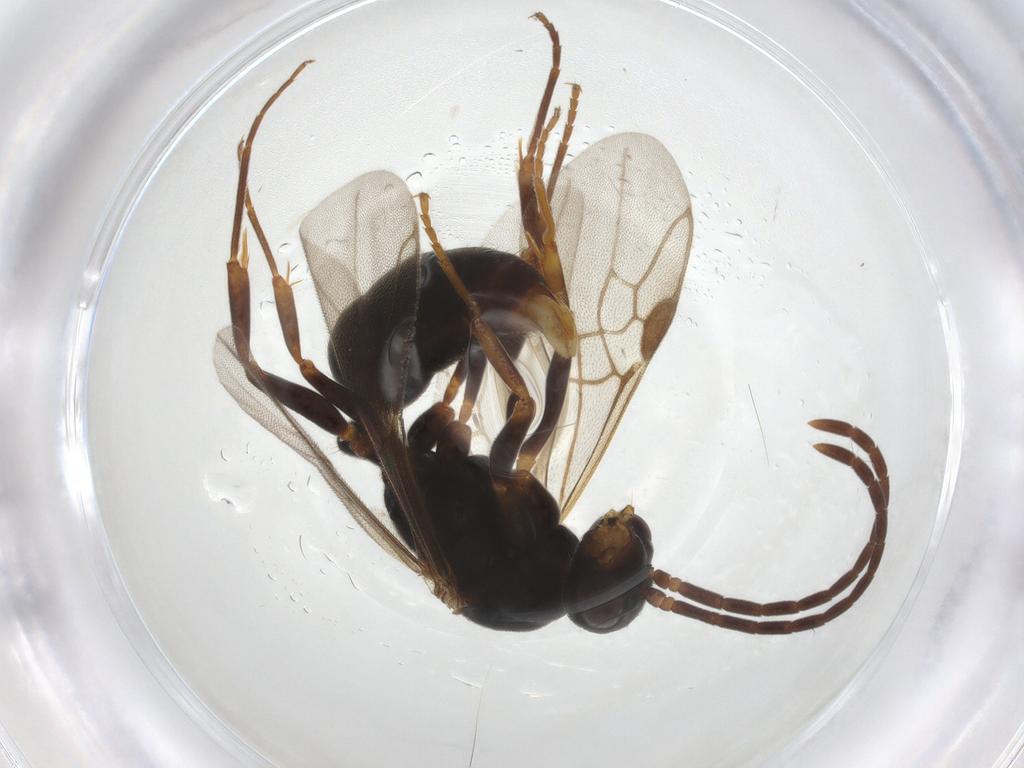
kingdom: Animalia
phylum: Arthropoda
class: Insecta
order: Hymenoptera
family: Formicidae
